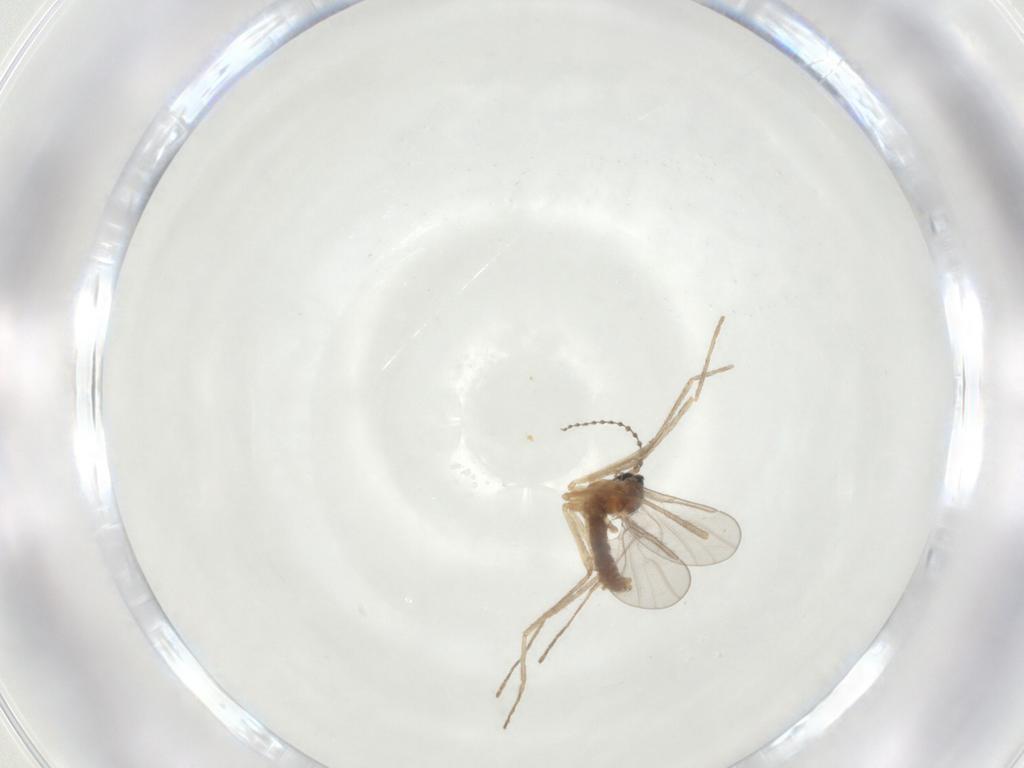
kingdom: Animalia
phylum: Arthropoda
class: Insecta
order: Diptera
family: Cecidomyiidae
